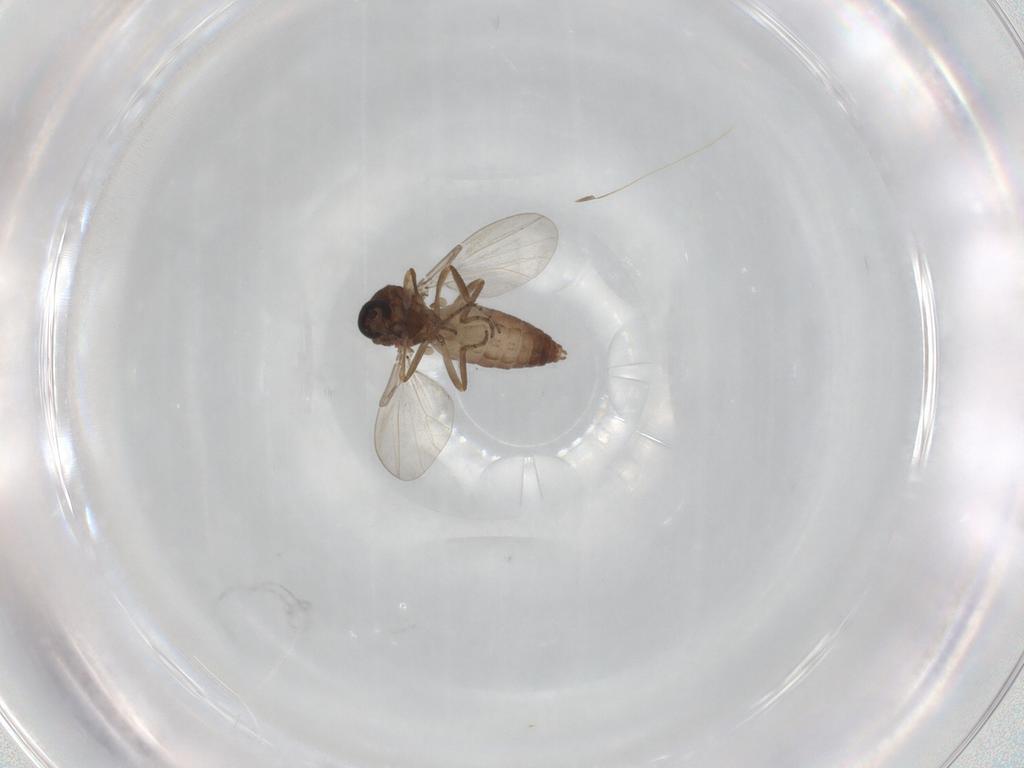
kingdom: Animalia
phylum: Arthropoda
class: Insecta
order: Diptera
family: Ceratopogonidae
